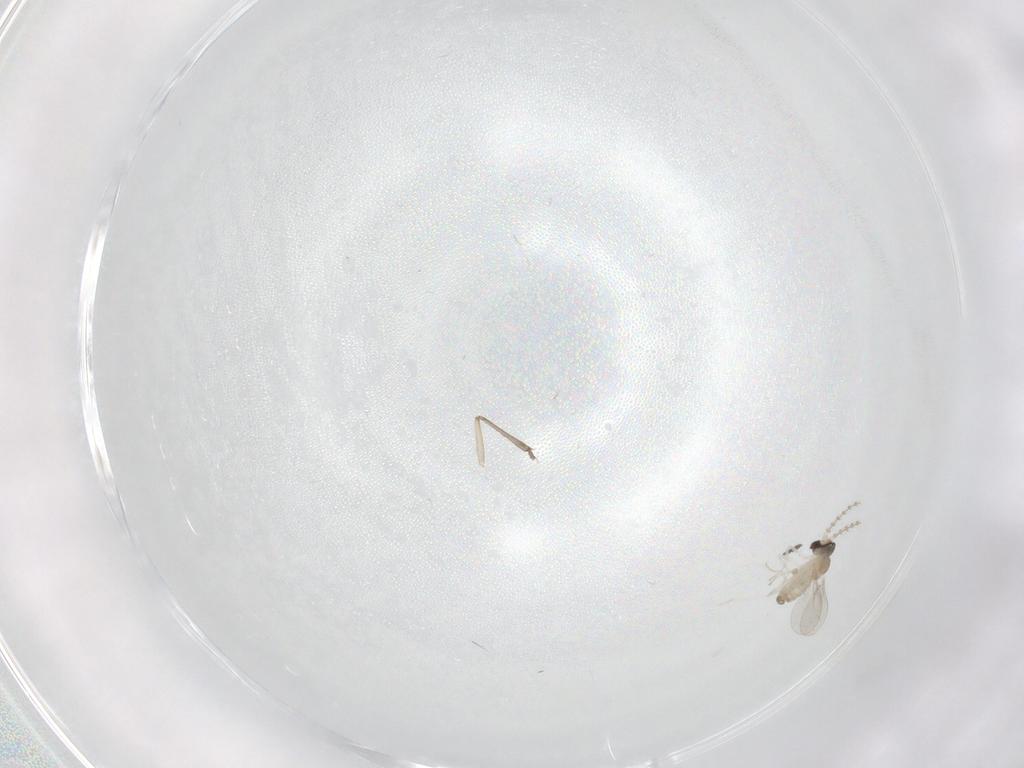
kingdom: Animalia
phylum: Arthropoda
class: Insecta
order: Diptera
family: Cecidomyiidae
